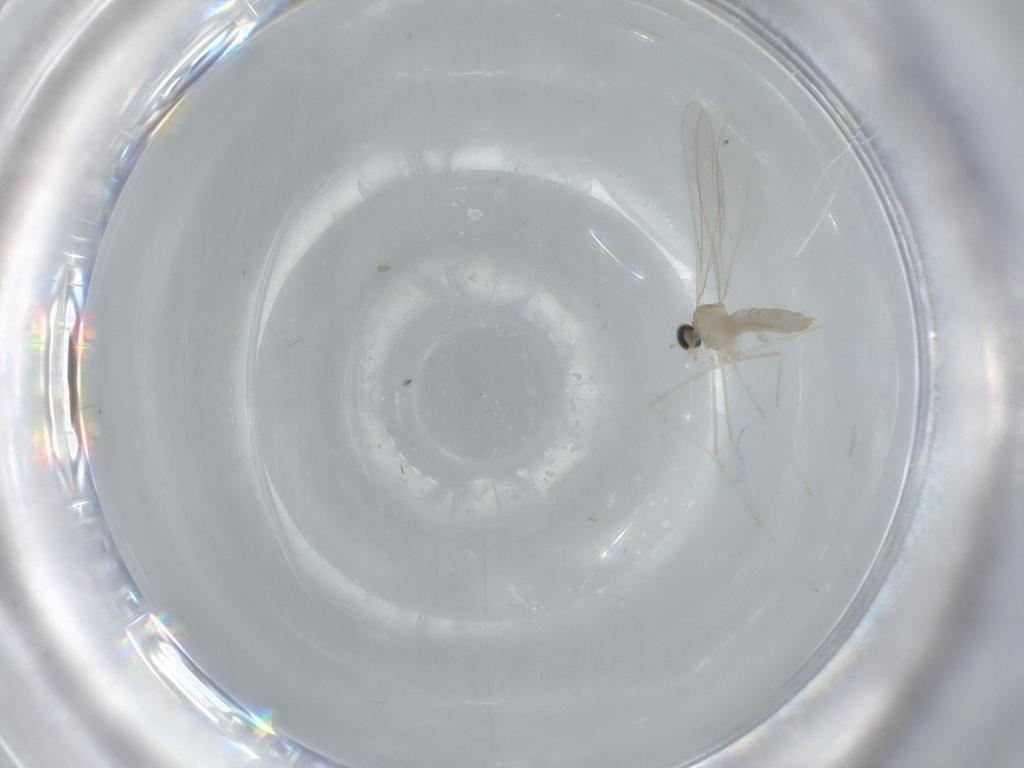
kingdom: Animalia
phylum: Arthropoda
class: Insecta
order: Diptera
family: Cecidomyiidae
